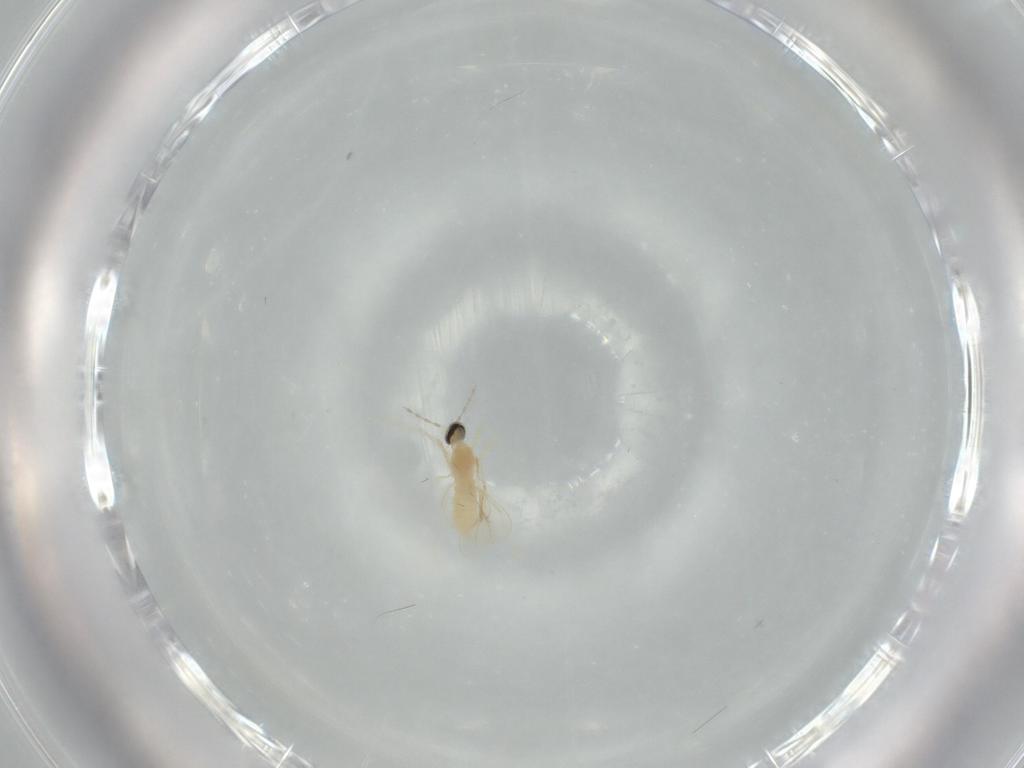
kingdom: Animalia
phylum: Arthropoda
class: Insecta
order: Diptera
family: Cecidomyiidae
